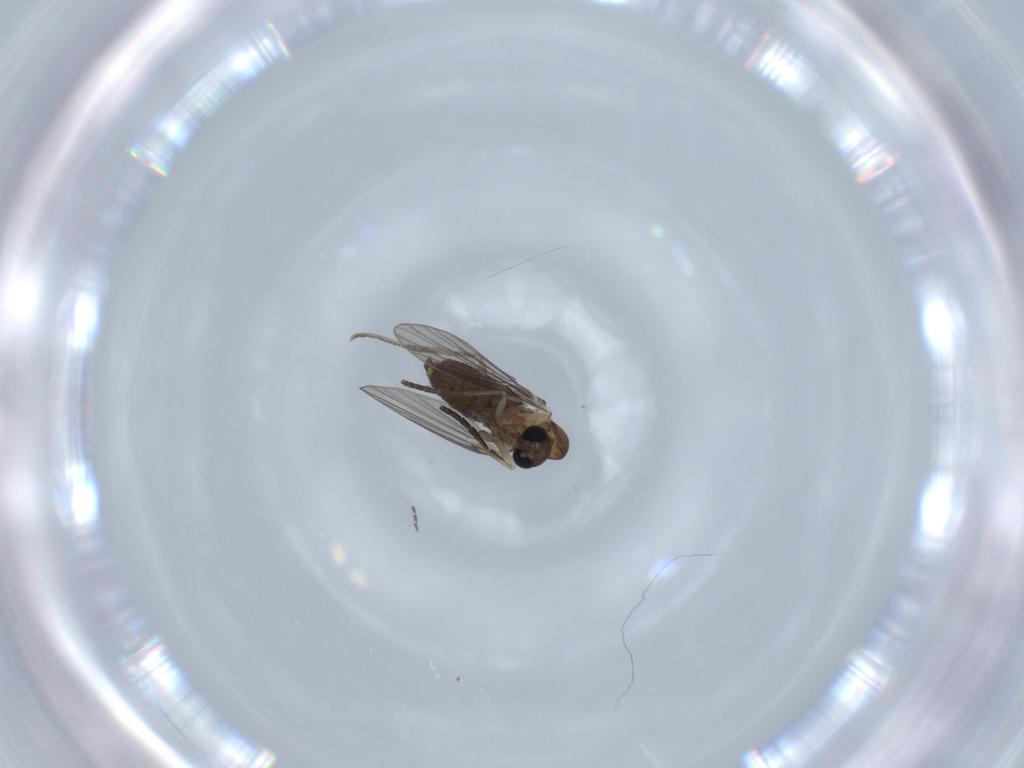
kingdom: Animalia
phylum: Arthropoda
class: Insecta
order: Diptera
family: Psychodidae
